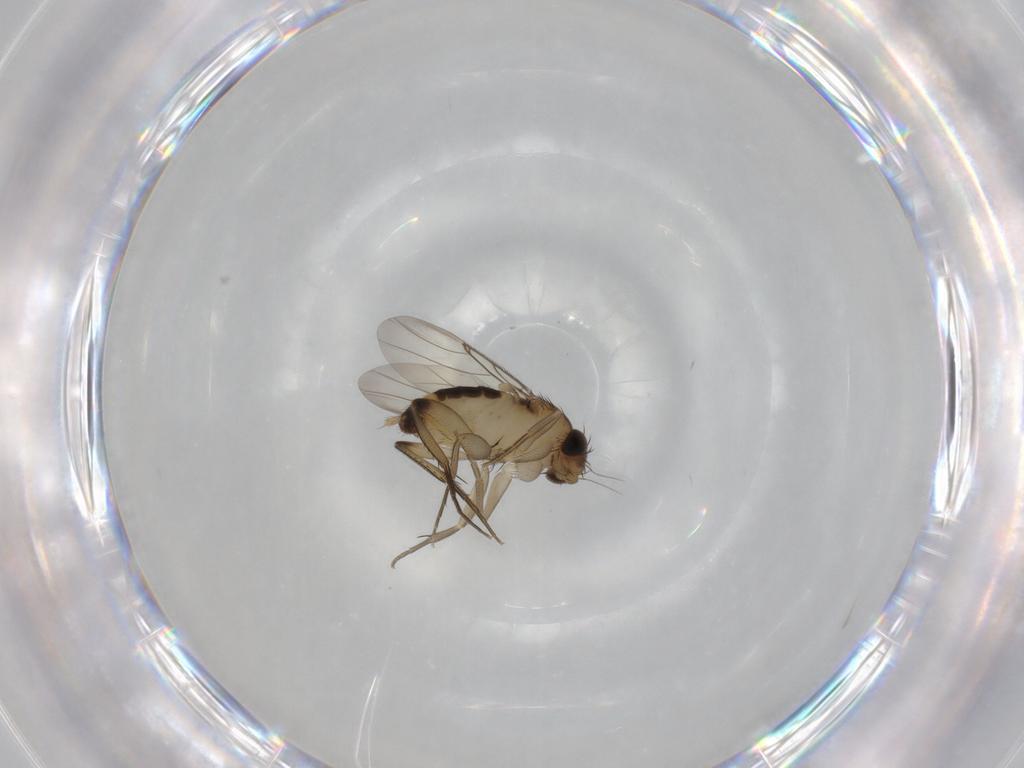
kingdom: Animalia
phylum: Arthropoda
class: Insecta
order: Diptera
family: Phoridae
